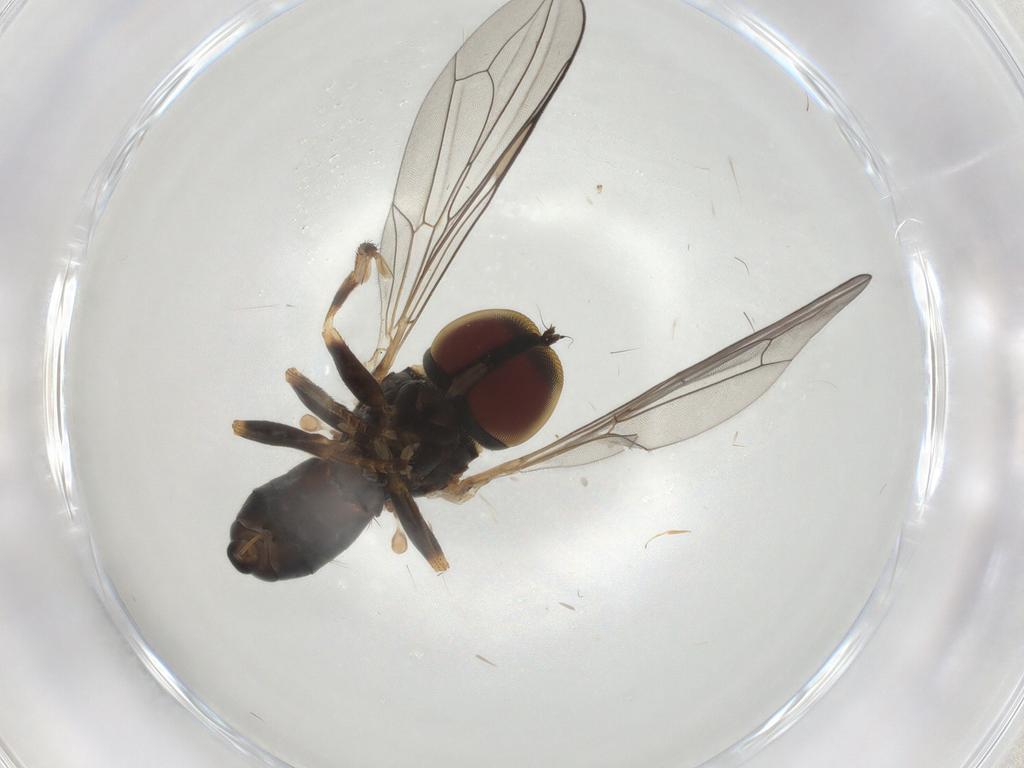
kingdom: Animalia
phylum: Arthropoda
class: Insecta
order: Diptera
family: Pipunculidae
